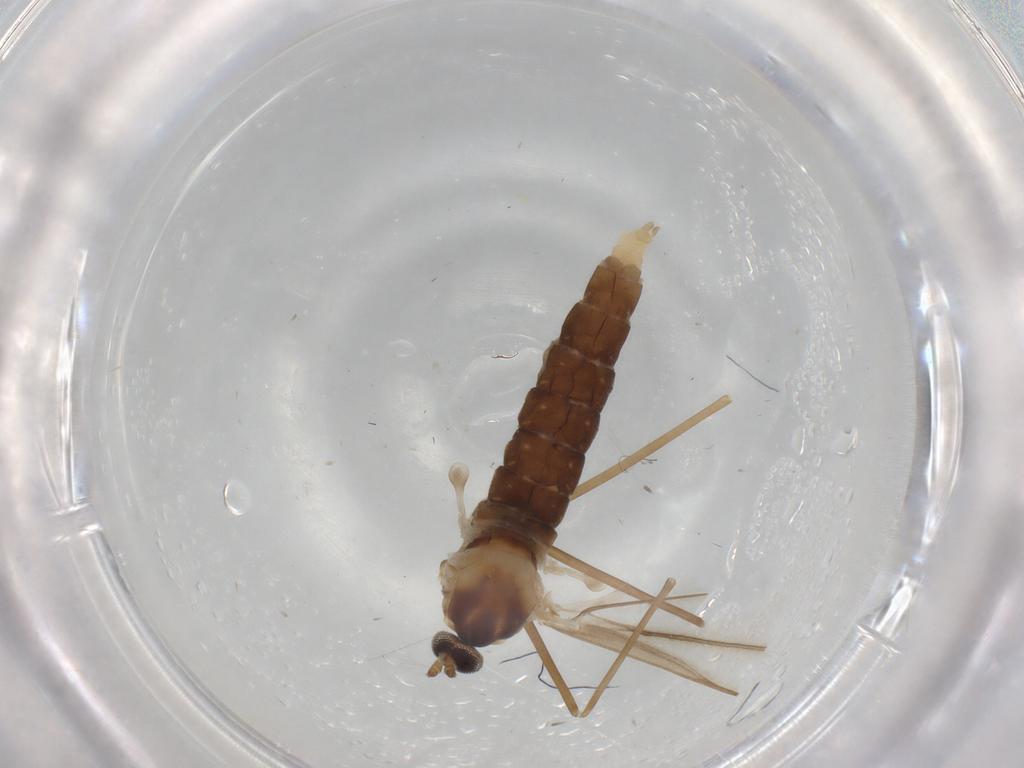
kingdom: Animalia
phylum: Arthropoda
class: Insecta
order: Diptera
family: Cecidomyiidae
